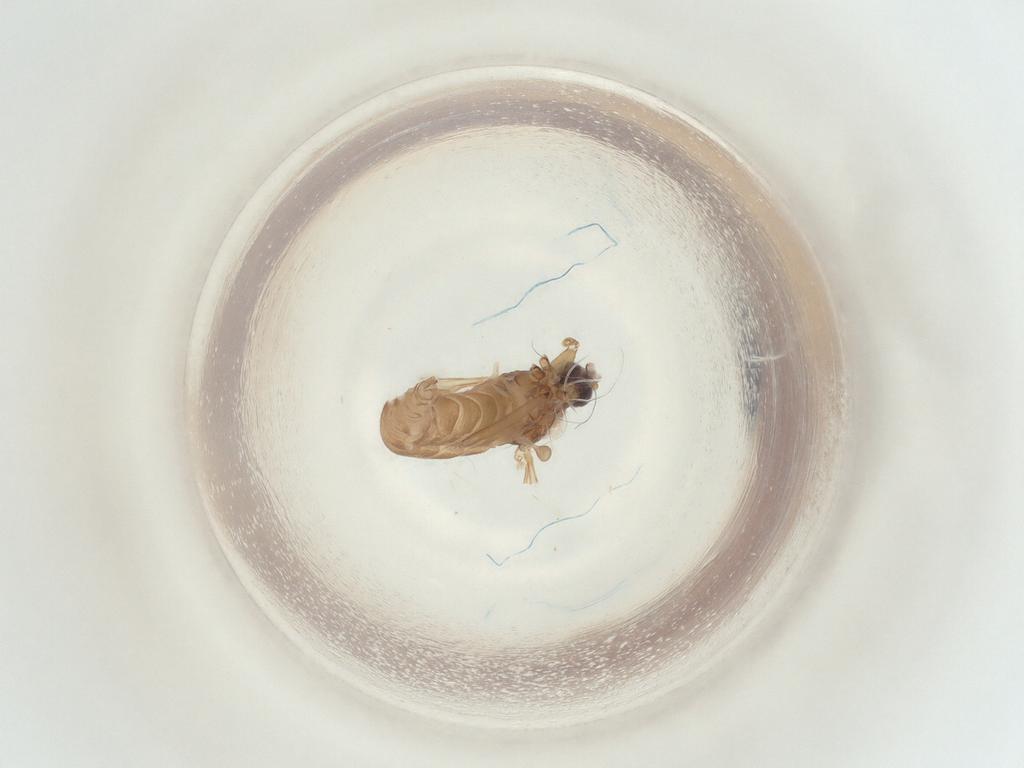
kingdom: Animalia
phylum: Arthropoda
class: Insecta
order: Diptera
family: Sciaridae
